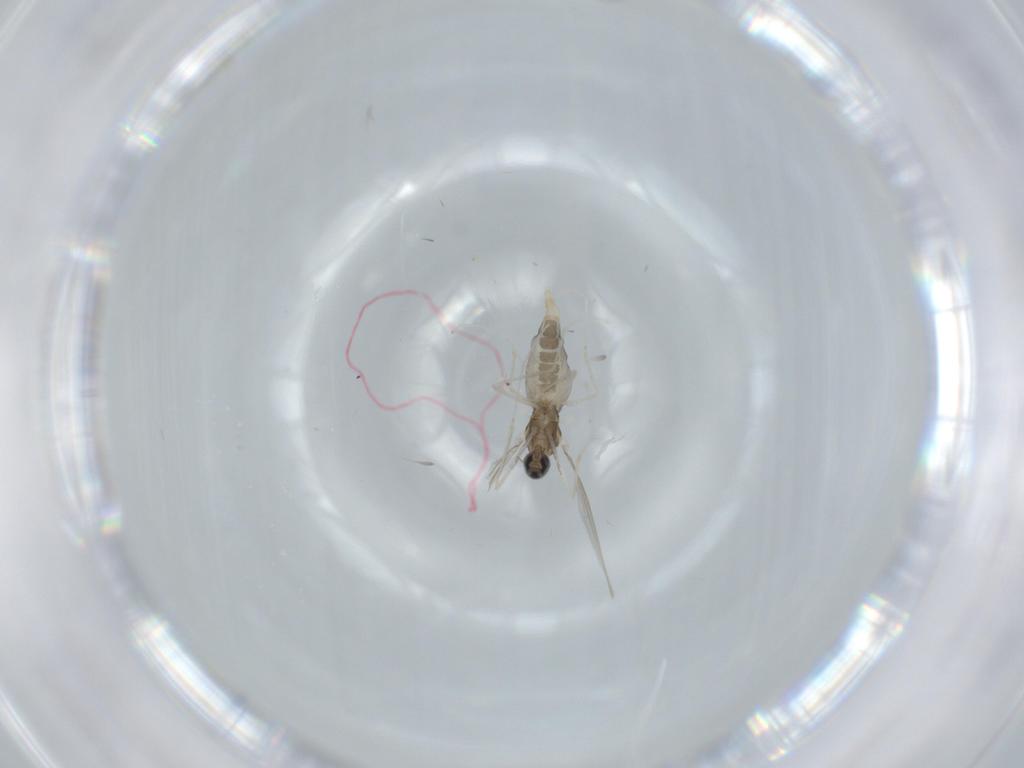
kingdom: Animalia
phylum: Arthropoda
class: Insecta
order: Diptera
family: Cecidomyiidae
